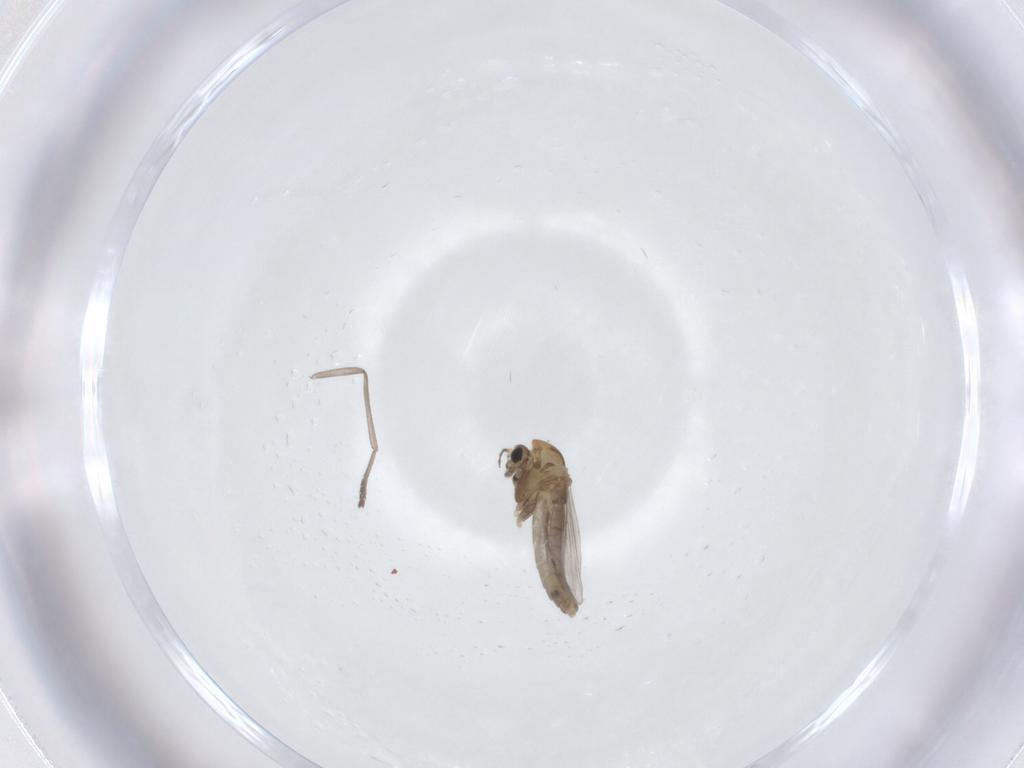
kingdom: Animalia
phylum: Arthropoda
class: Insecta
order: Diptera
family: Chironomidae
